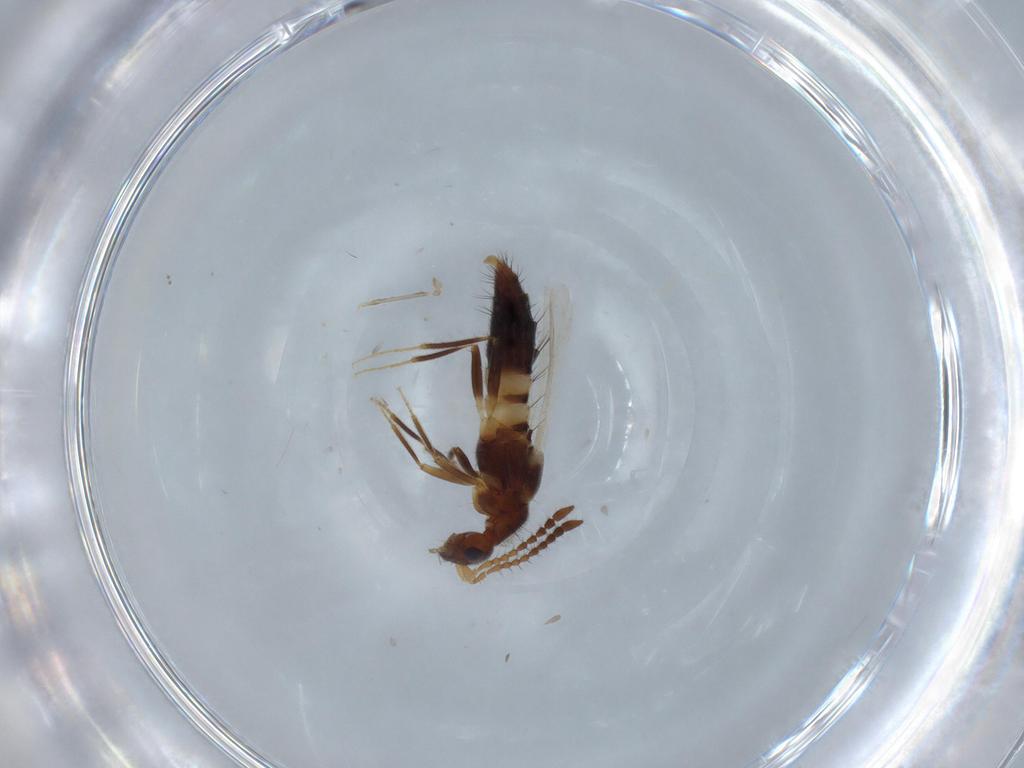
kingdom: Animalia
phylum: Arthropoda
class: Insecta
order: Coleoptera
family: Staphylinidae
